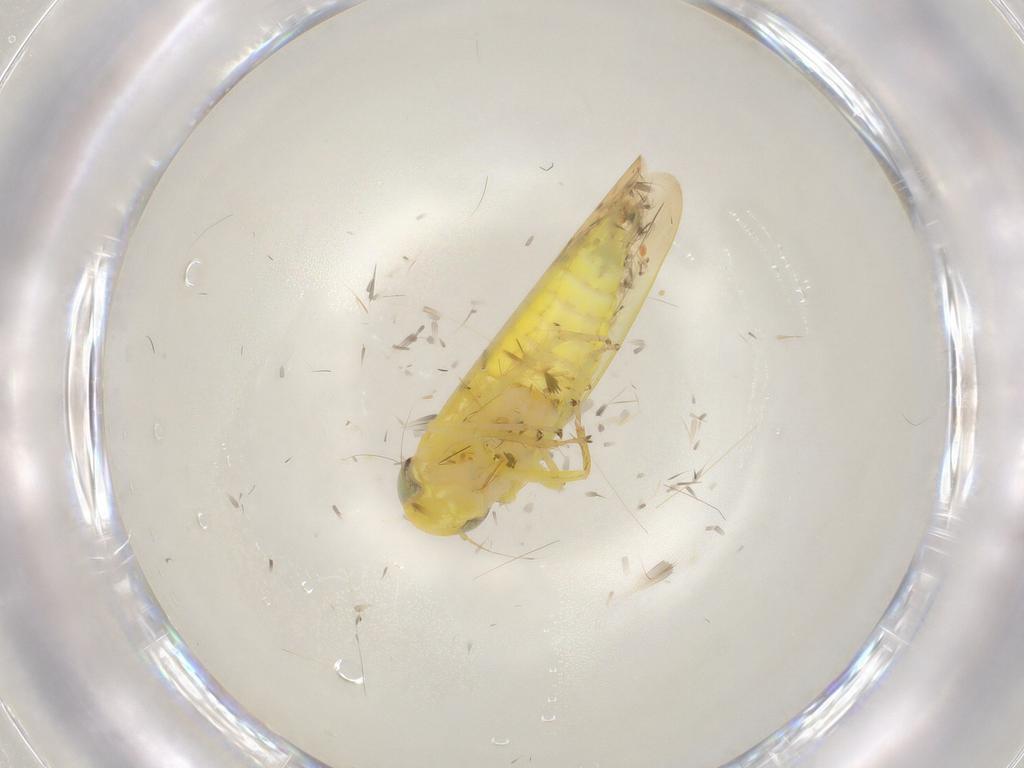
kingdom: Animalia
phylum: Arthropoda
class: Insecta
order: Hemiptera
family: Cicadellidae
